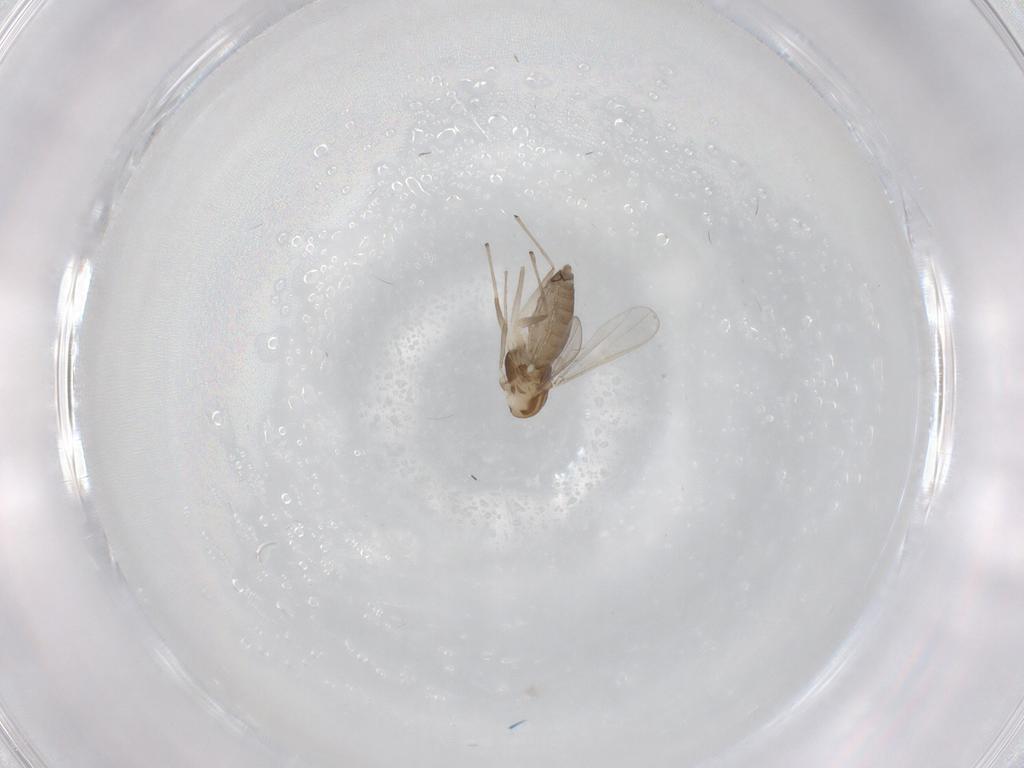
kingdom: Animalia
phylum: Arthropoda
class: Insecta
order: Diptera
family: Chironomidae
